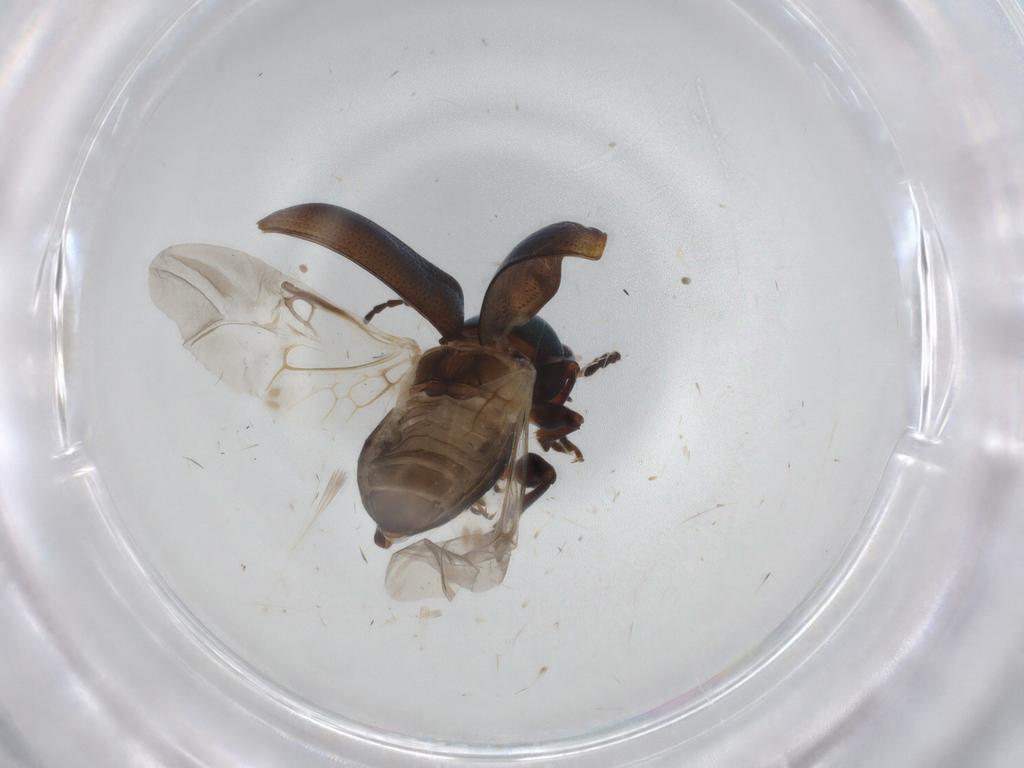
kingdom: Animalia
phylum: Arthropoda
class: Insecta
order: Coleoptera
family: Chrysomelidae
